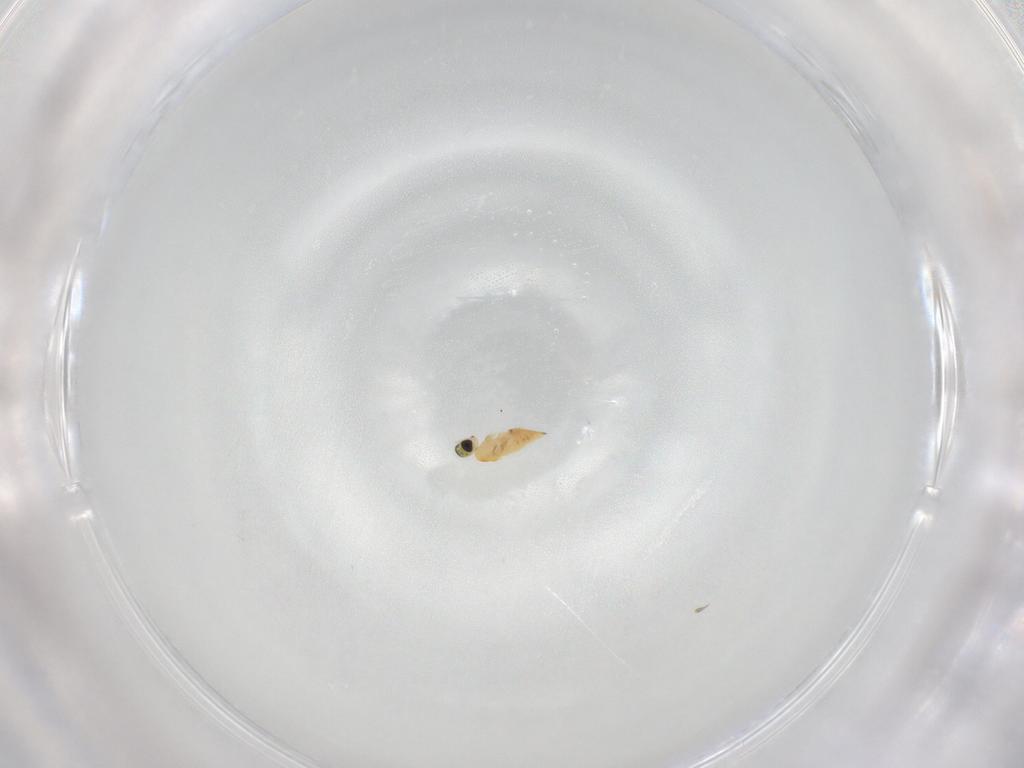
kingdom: Animalia
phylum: Arthropoda
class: Insecta
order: Hymenoptera
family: Trichogrammatidae
